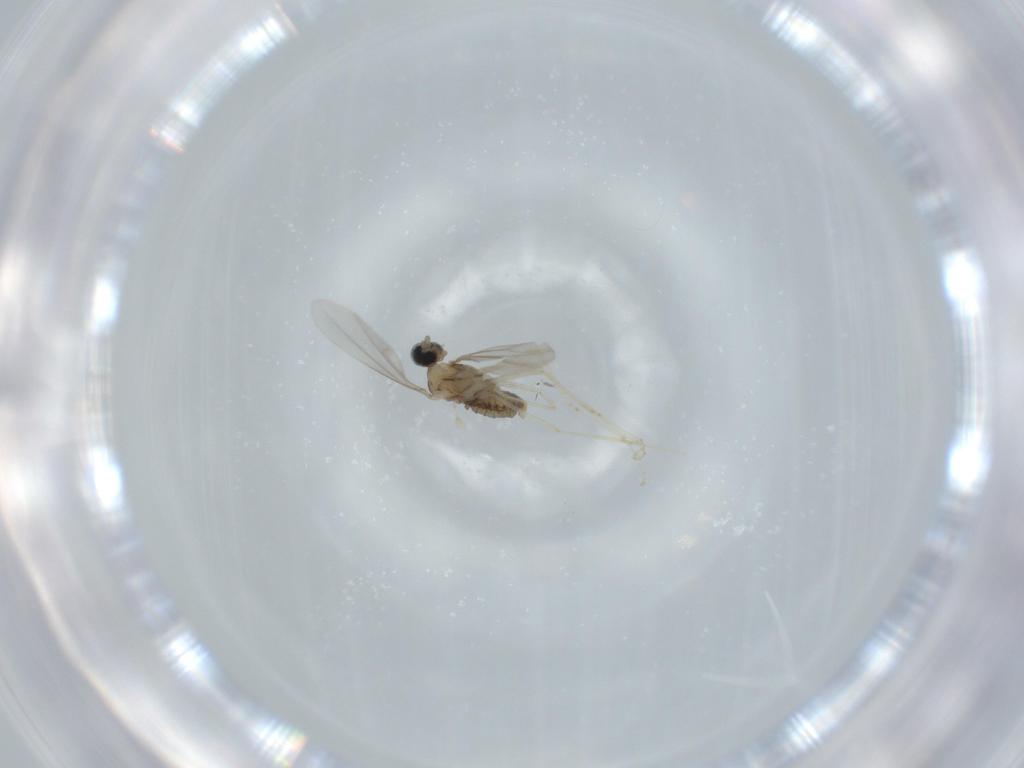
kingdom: Animalia
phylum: Arthropoda
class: Insecta
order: Diptera
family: Cecidomyiidae
